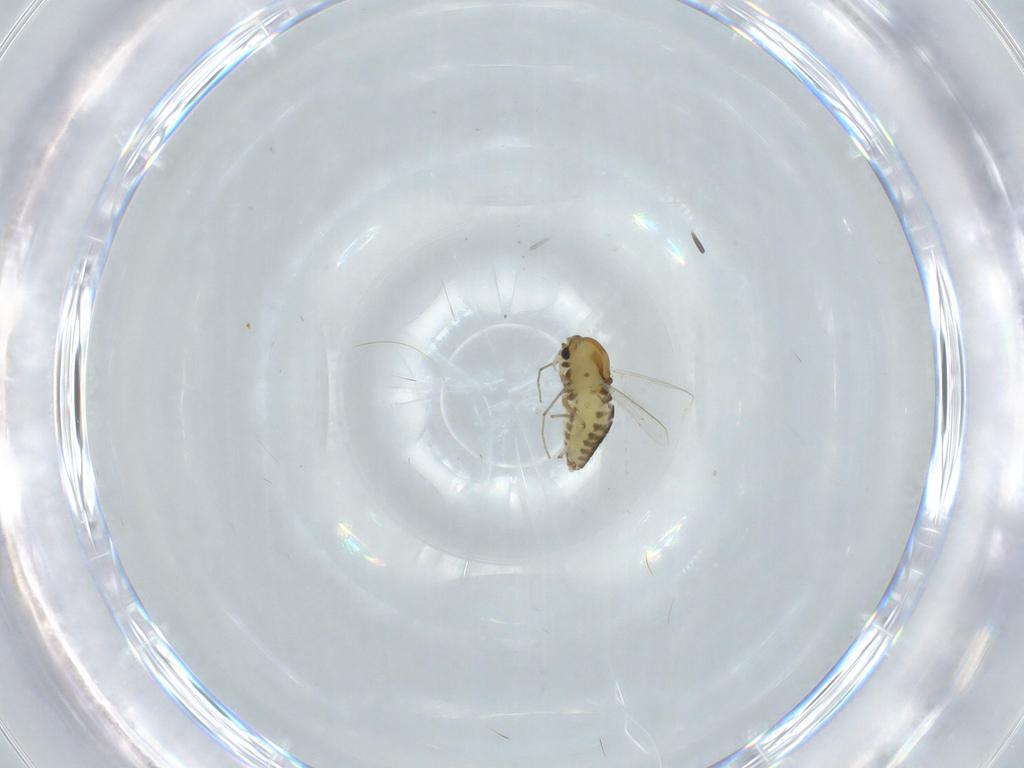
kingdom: Animalia
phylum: Arthropoda
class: Insecta
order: Diptera
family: Chironomidae
